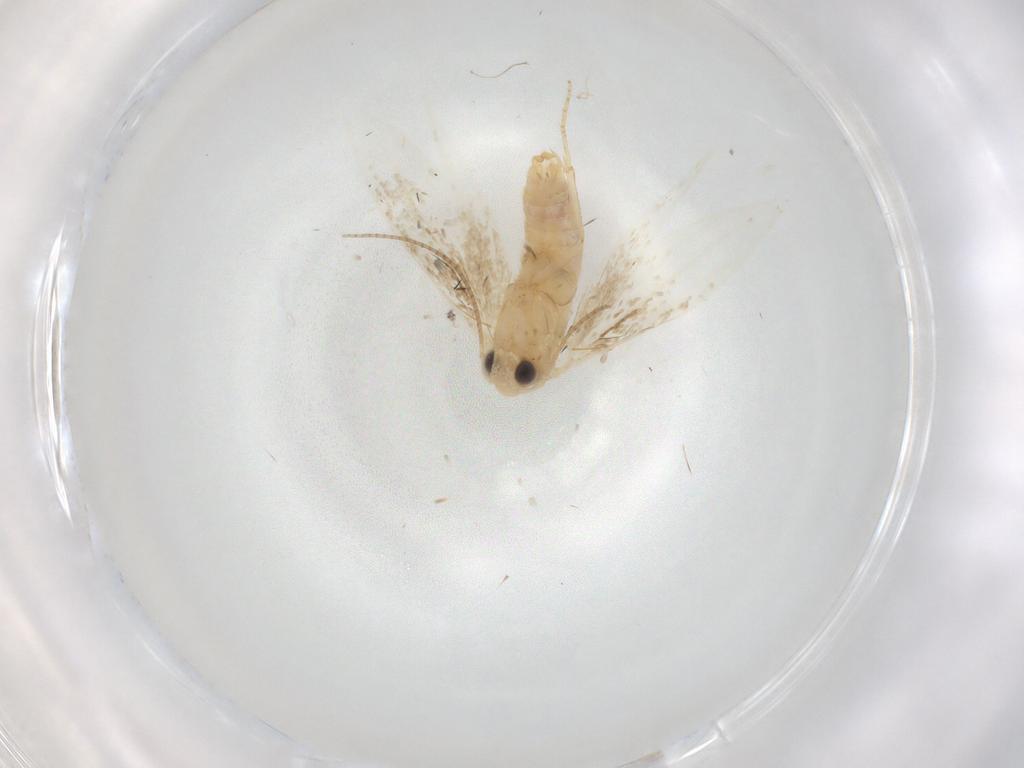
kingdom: Animalia
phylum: Arthropoda
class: Insecta
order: Lepidoptera
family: Bucculatricidae
